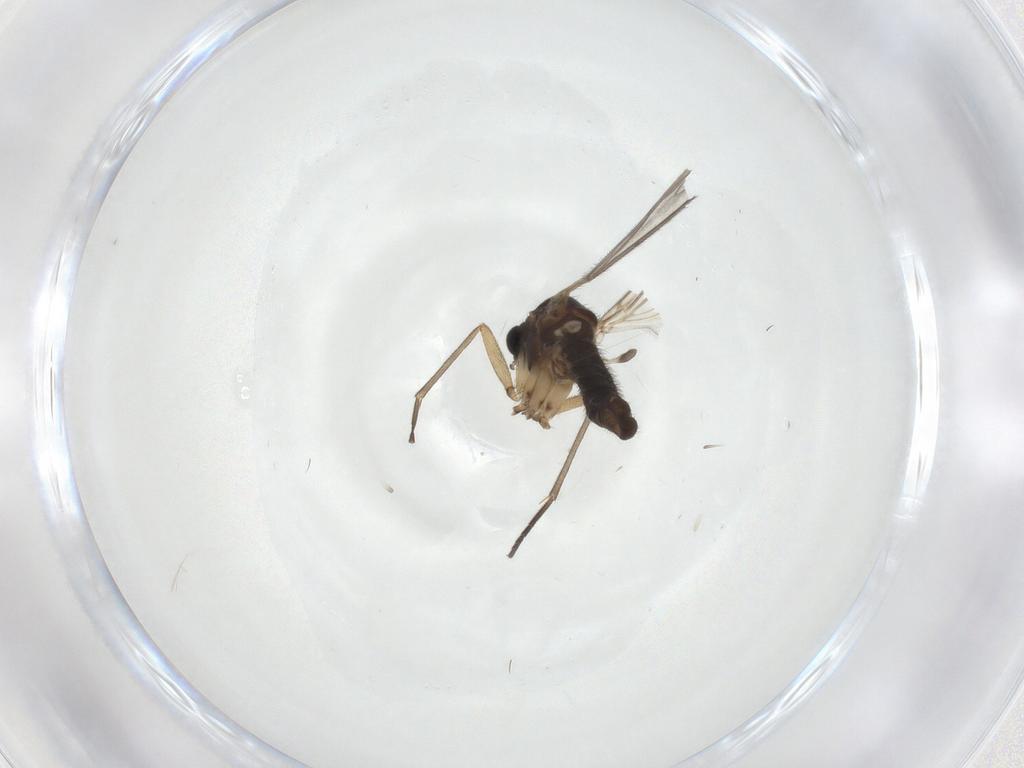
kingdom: Animalia
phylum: Arthropoda
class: Insecta
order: Diptera
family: Sciaridae
